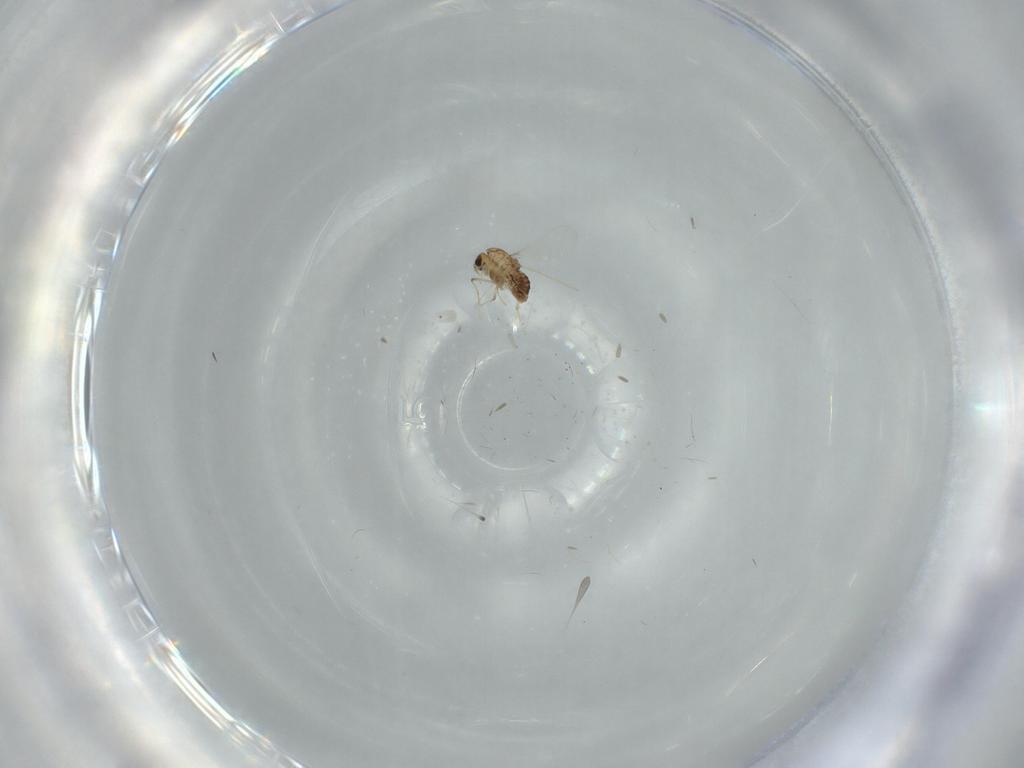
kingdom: Animalia
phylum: Arthropoda
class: Insecta
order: Diptera
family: Chironomidae
